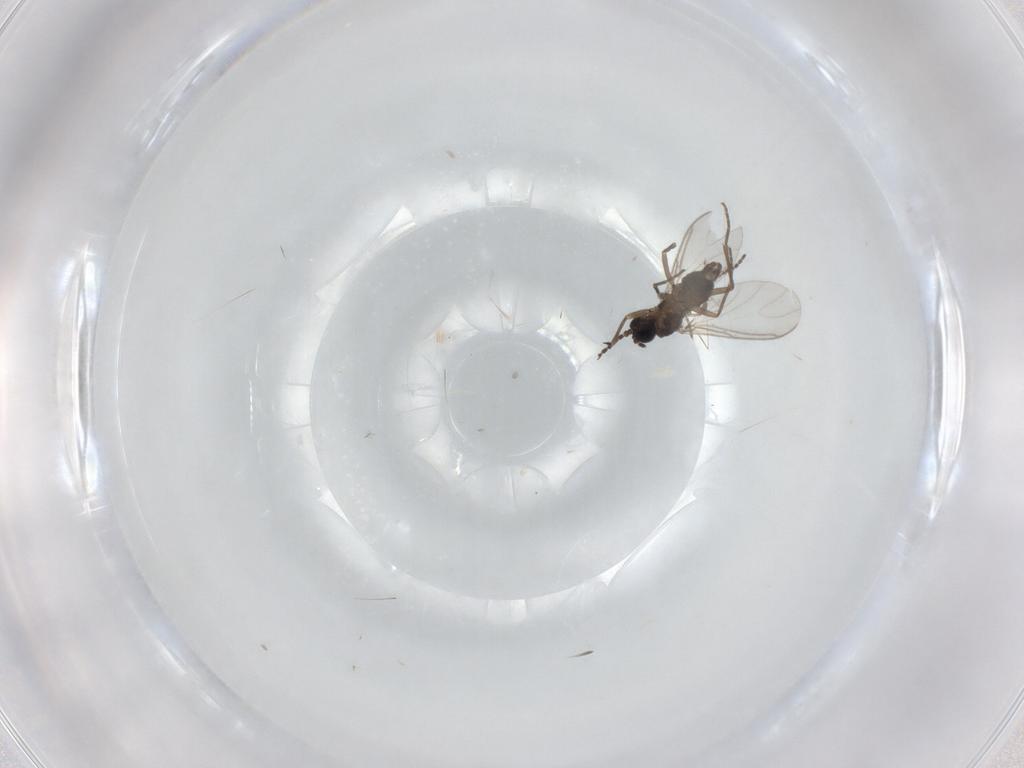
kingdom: Animalia
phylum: Arthropoda
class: Insecta
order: Diptera
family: Sciaridae
